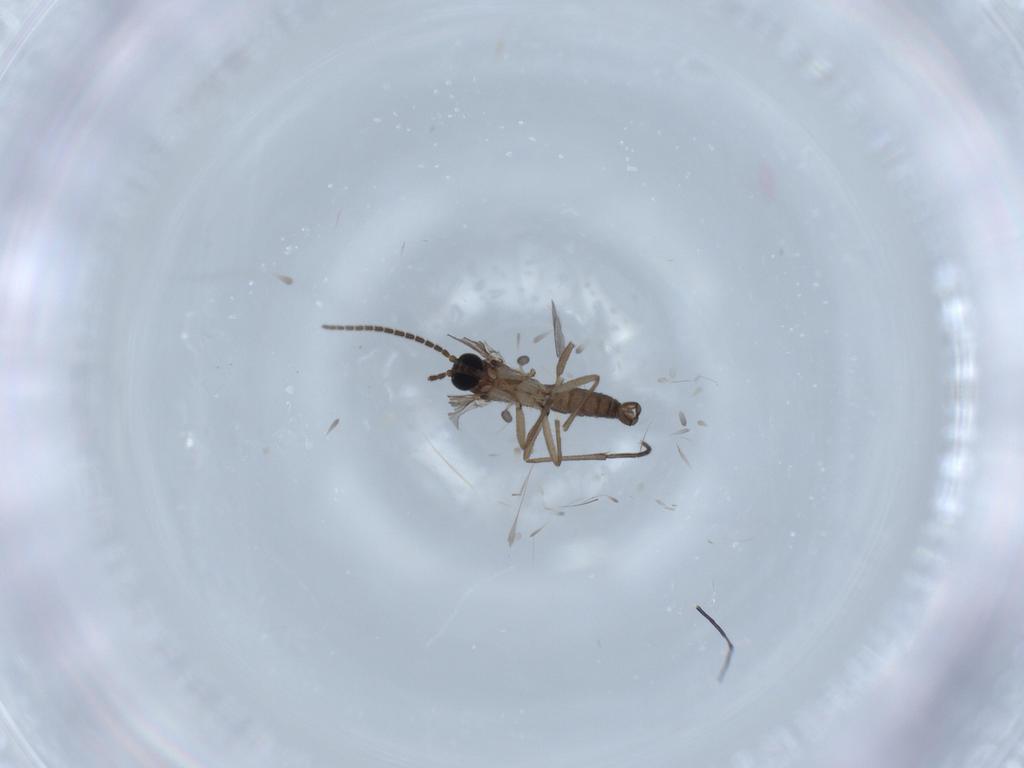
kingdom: Animalia
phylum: Arthropoda
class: Insecta
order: Diptera
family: Sciaridae
